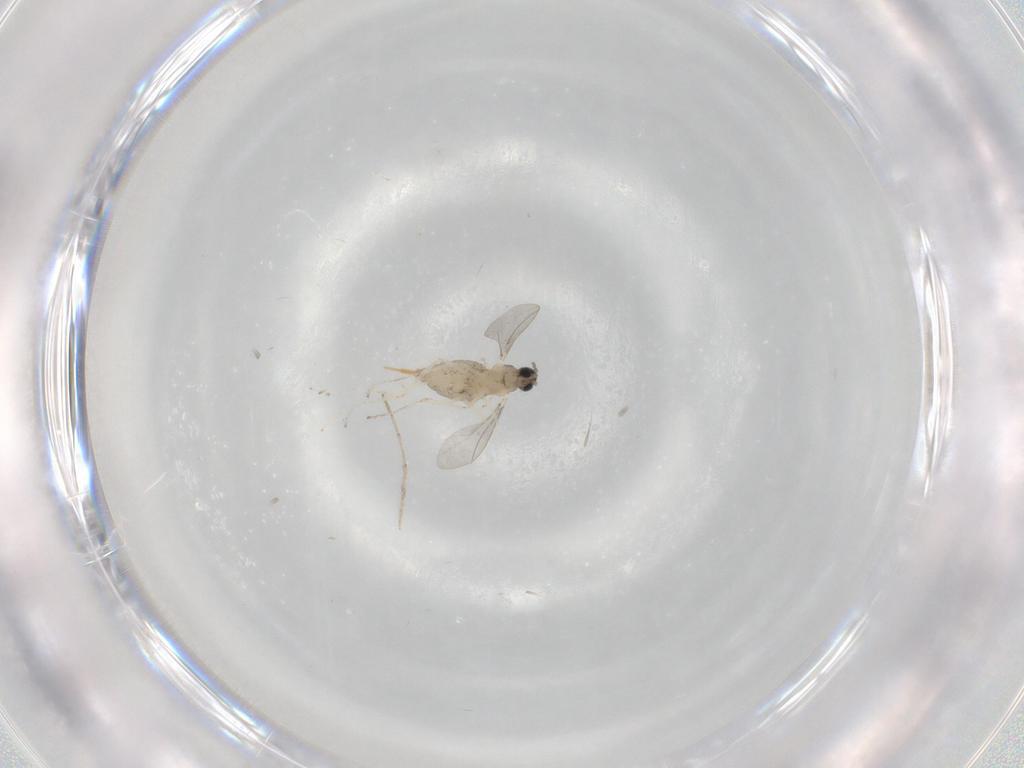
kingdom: Animalia
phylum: Arthropoda
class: Insecta
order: Diptera
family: Cecidomyiidae
